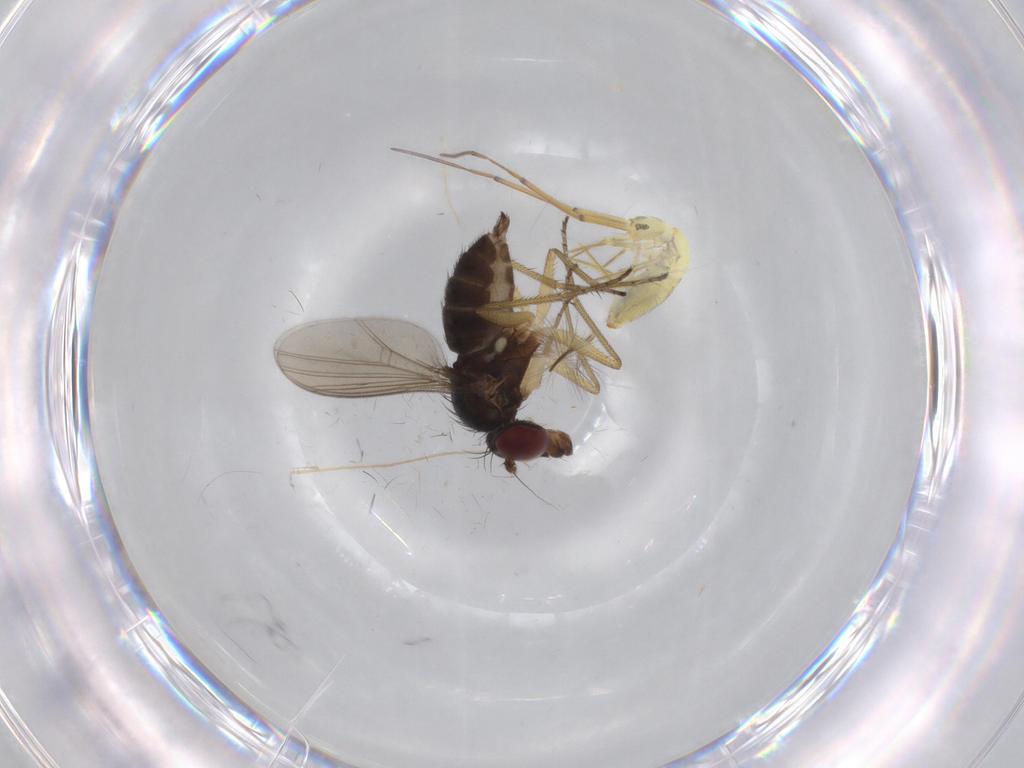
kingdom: Animalia
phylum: Arthropoda
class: Insecta
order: Diptera
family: Dolichopodidae
